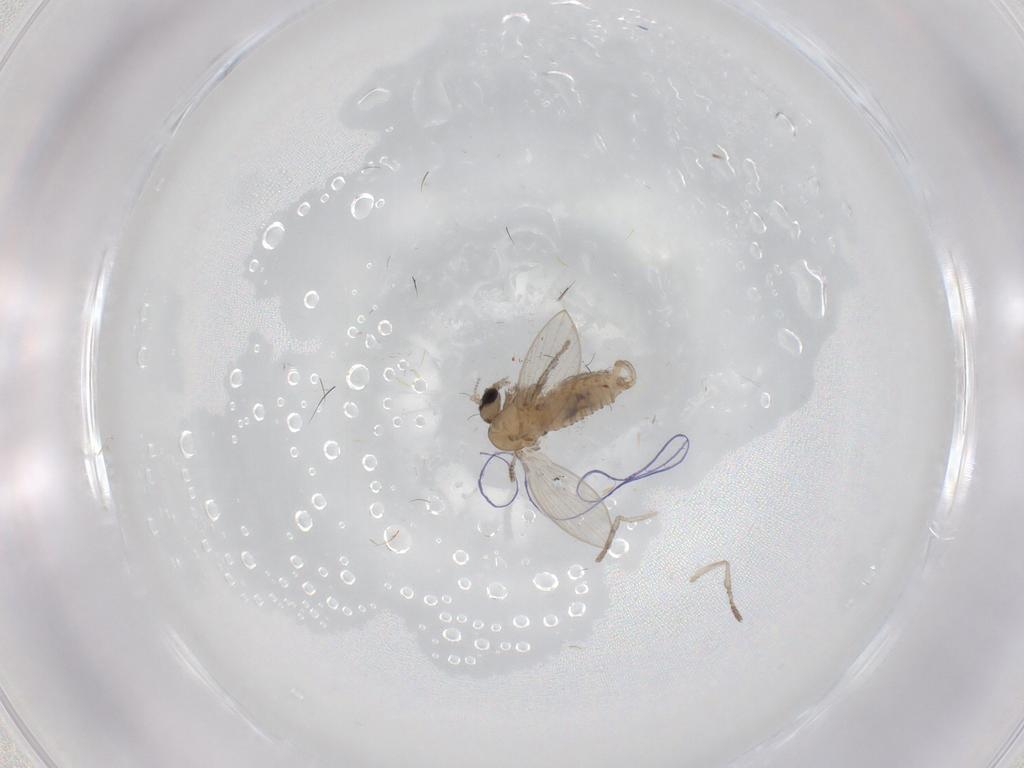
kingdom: Animalia
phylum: Arthropoda
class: Insecta
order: Diptera
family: Psychodidae
